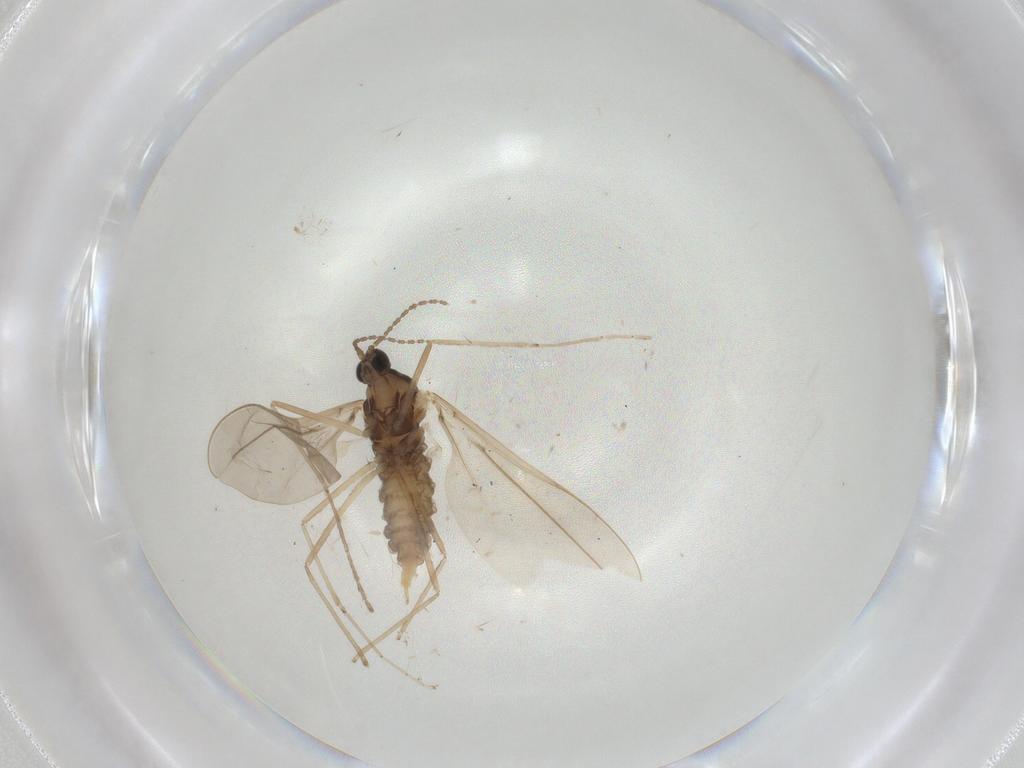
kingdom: Animalia
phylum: Arthropoda
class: Insecta
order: Diptera
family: Cecidomyiidae
